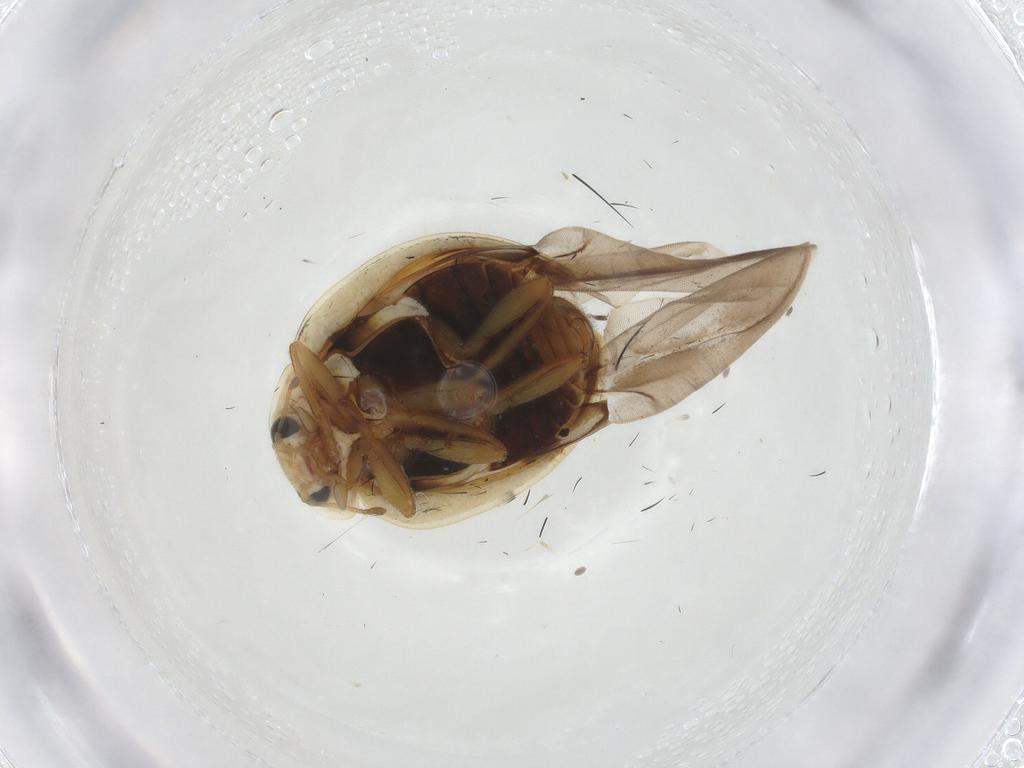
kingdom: Animalia
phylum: Arthropoda
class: Insecta
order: Coleoptera
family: Coccinellidae
